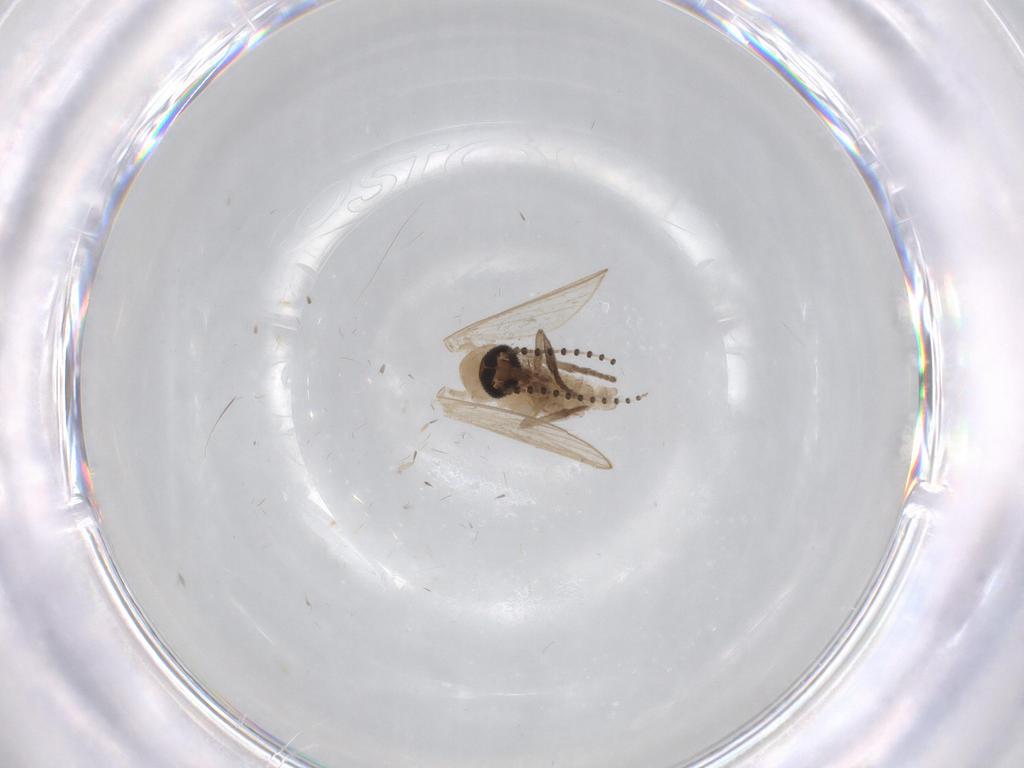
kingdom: Animalia
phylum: Arthropoda
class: Insecta
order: Diptera
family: Psychodidae
